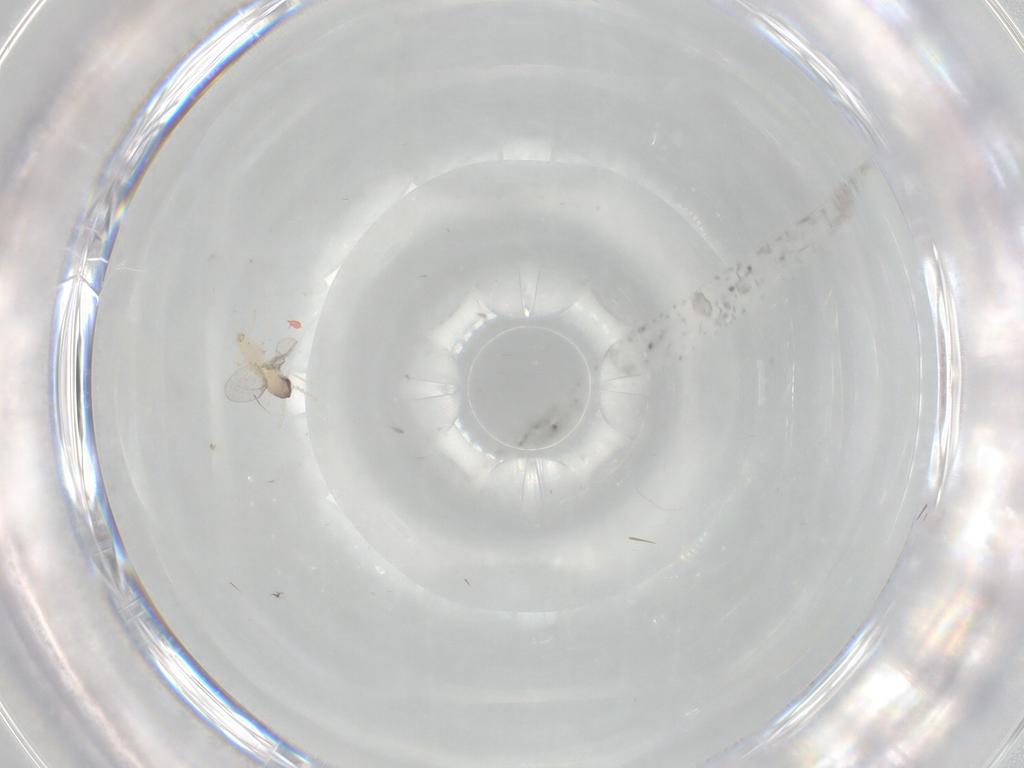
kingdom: Animalia
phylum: Arthropoda
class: Insecta
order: Diptera
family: Cecidomyiidae
